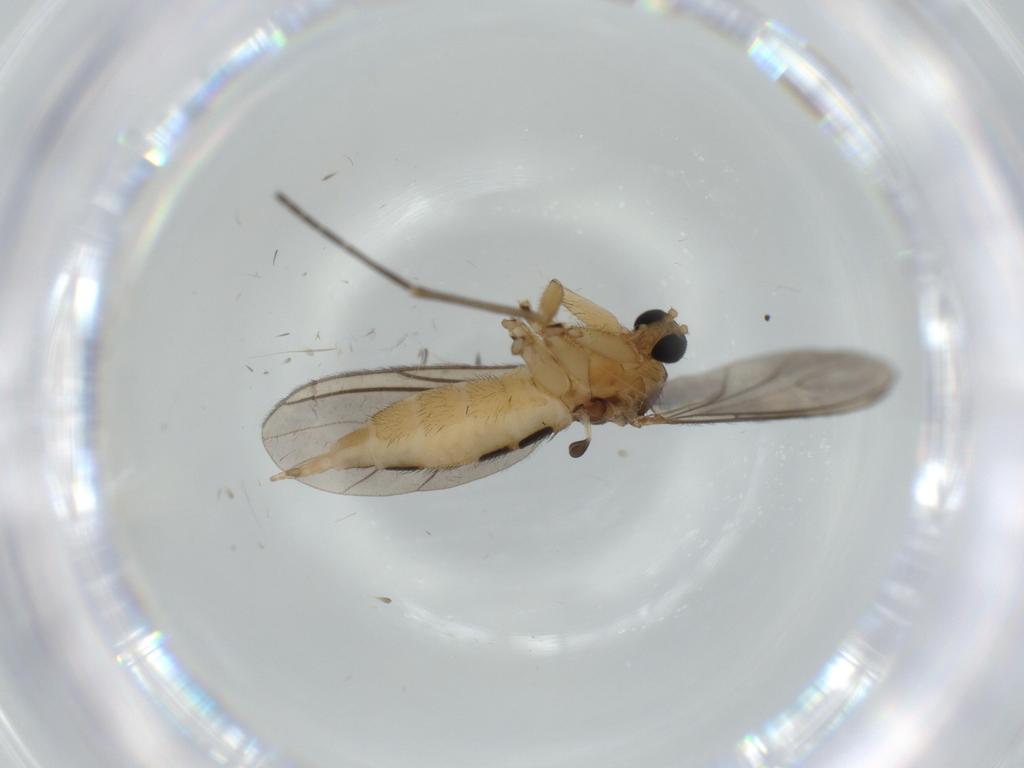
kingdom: Animalia
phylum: Arthropoda
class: Insecta
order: Diptera
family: Sciaridae
